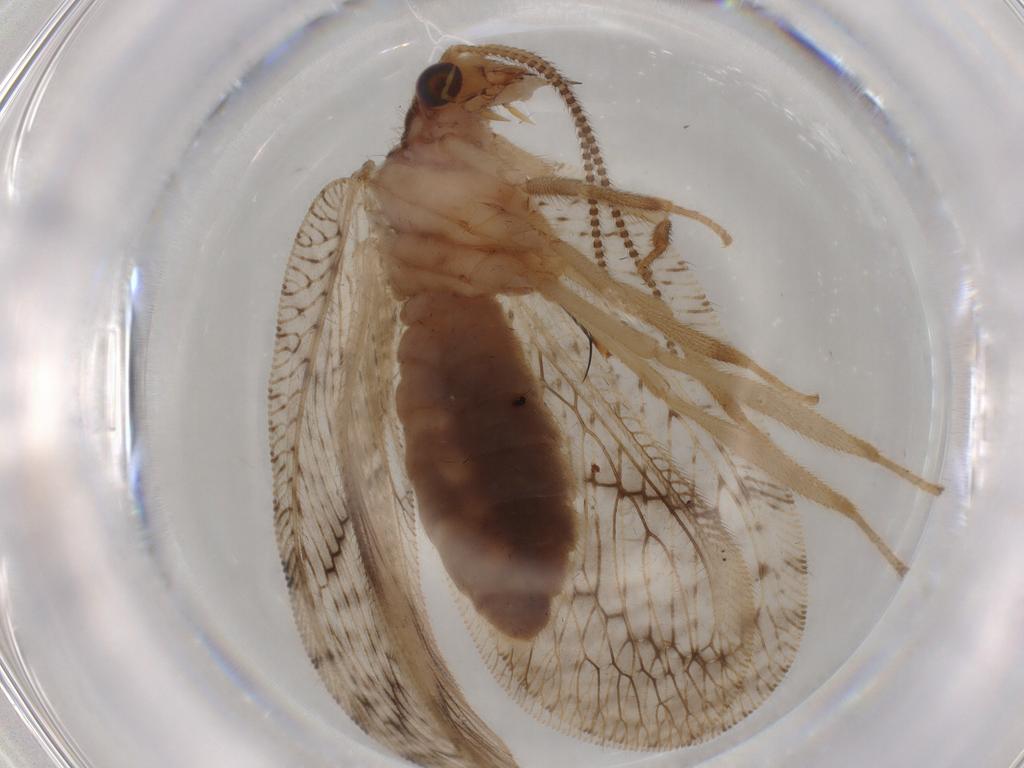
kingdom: Animalia
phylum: Arthropoda
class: Insecta
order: Neuroptera
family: Hemerobiidae
